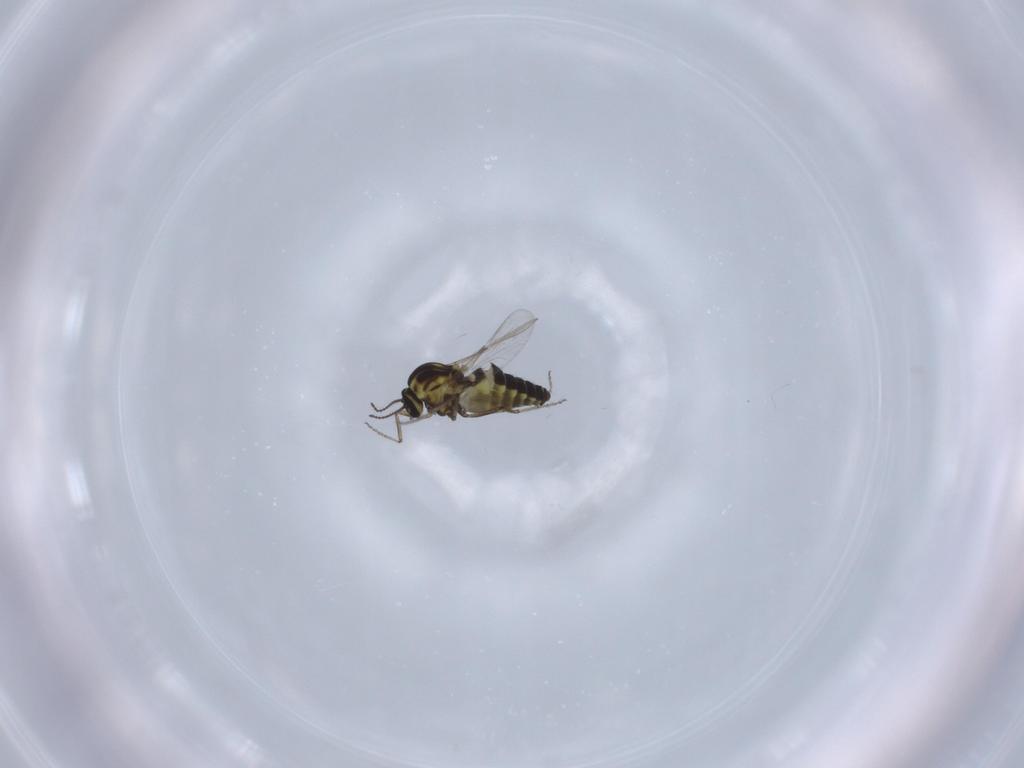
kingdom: Animalia
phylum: Arthropoda
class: Insecta
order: Diptera
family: Ceratopogonidae
